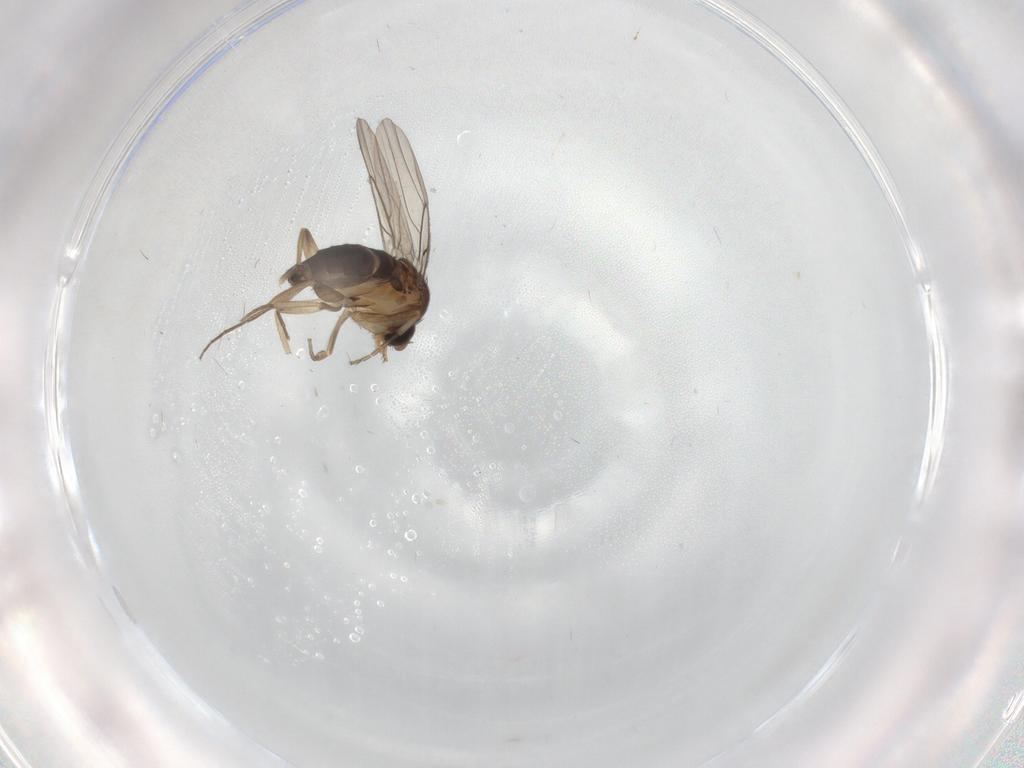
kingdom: Animalia
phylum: Arthropoda
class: Insecta
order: Diptera
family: Phoridae
